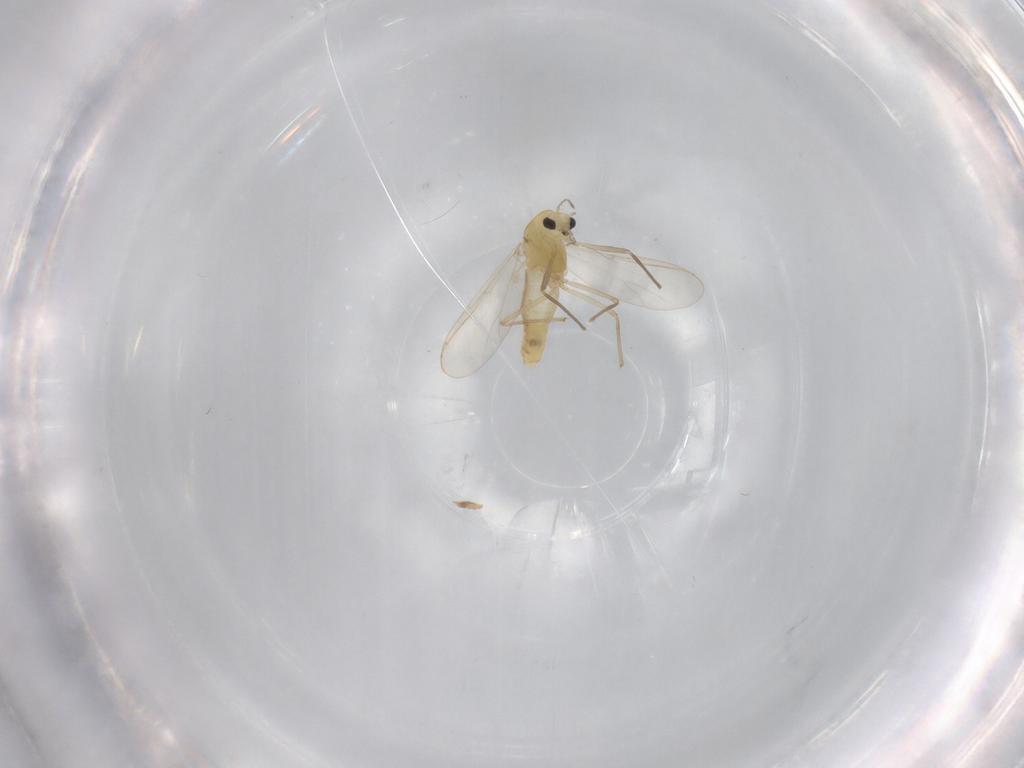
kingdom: Animalia
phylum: Arthropoda
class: Insecta
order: Diptera
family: Chironomidae
